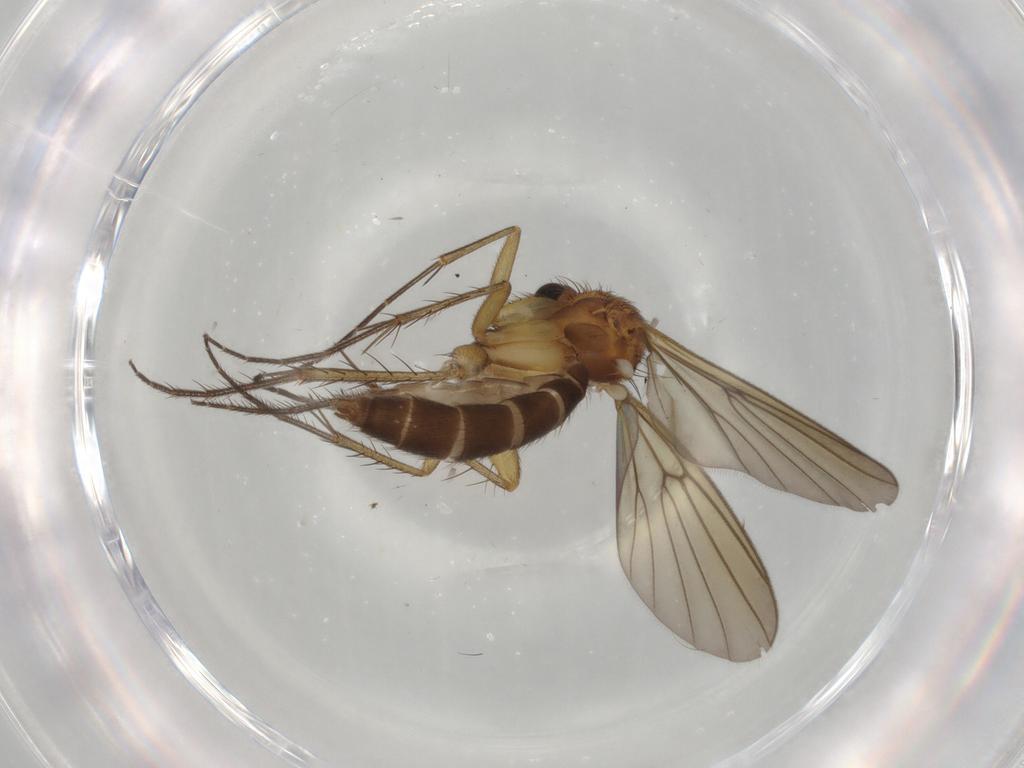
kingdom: Animalia
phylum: Arthropoda
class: Insecta
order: Diptera
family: Mycetophilidae
